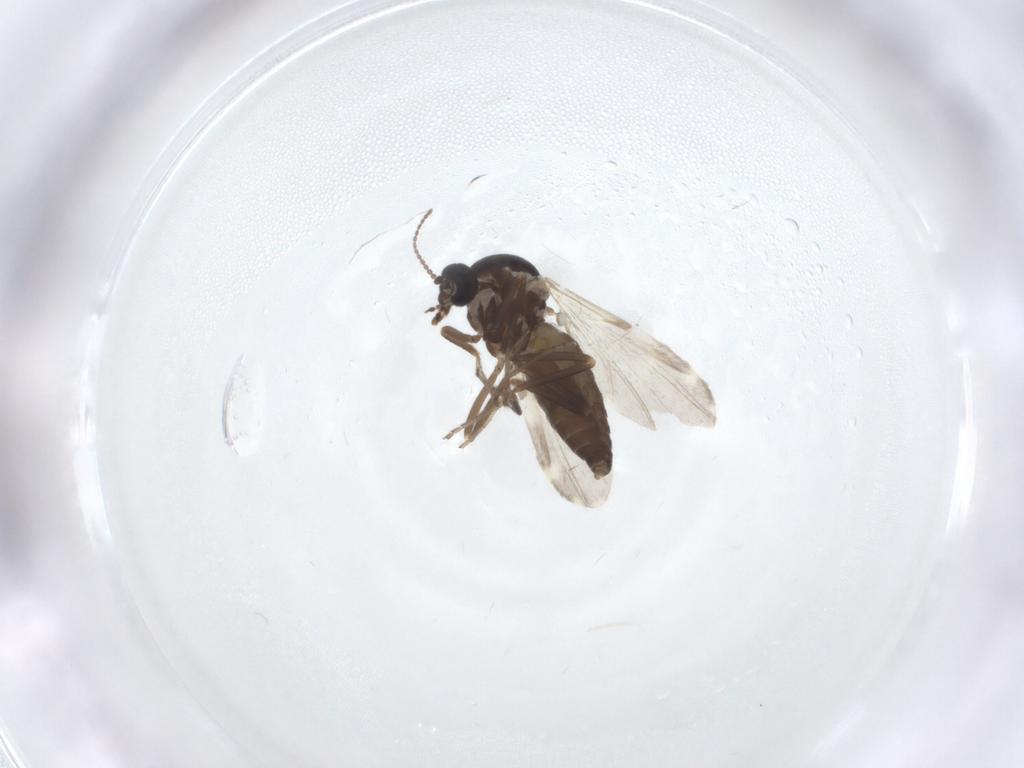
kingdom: Animalia
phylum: Arthropoda
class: Insecta
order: Diptera
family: Ceratopogonidae
